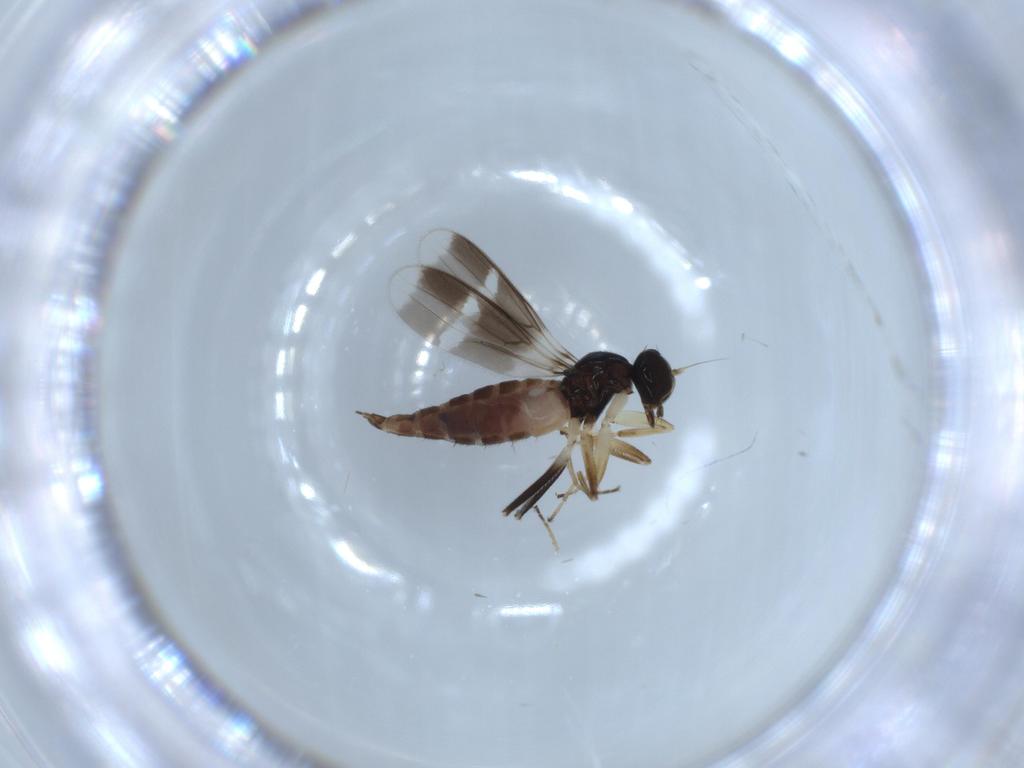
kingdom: Animalia
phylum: Arthropoda
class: Insecta
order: Diptera
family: Hybotidae
